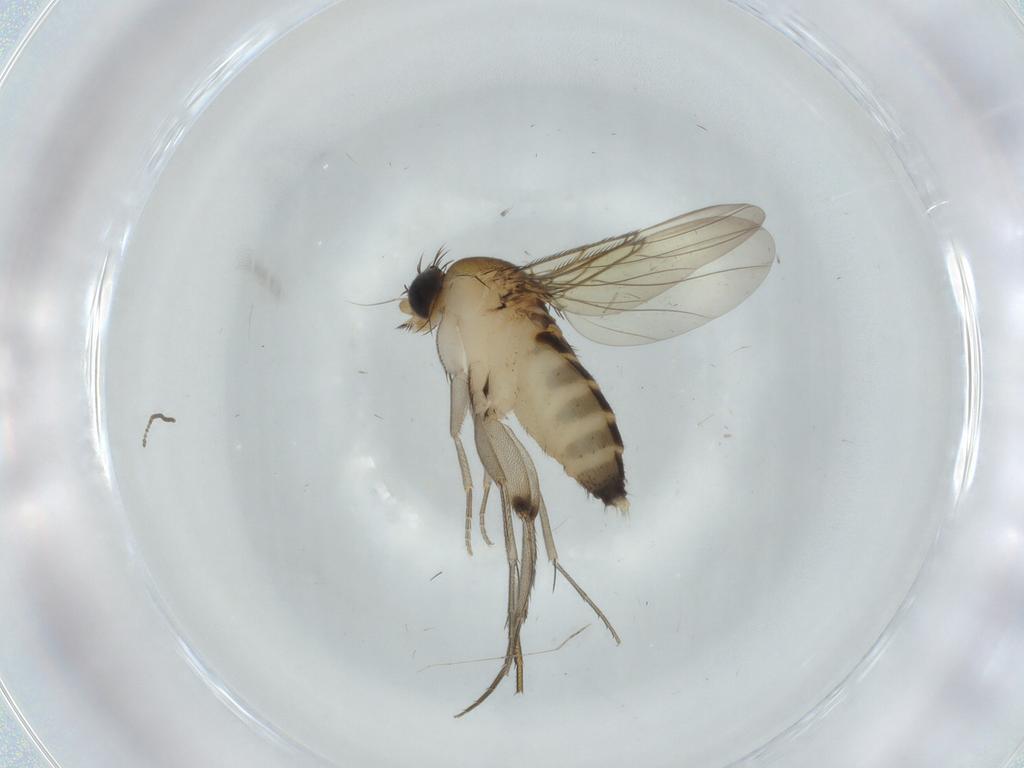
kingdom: Animalia
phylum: Arthropoda
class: Insecta
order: Diptera
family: Phoridae
